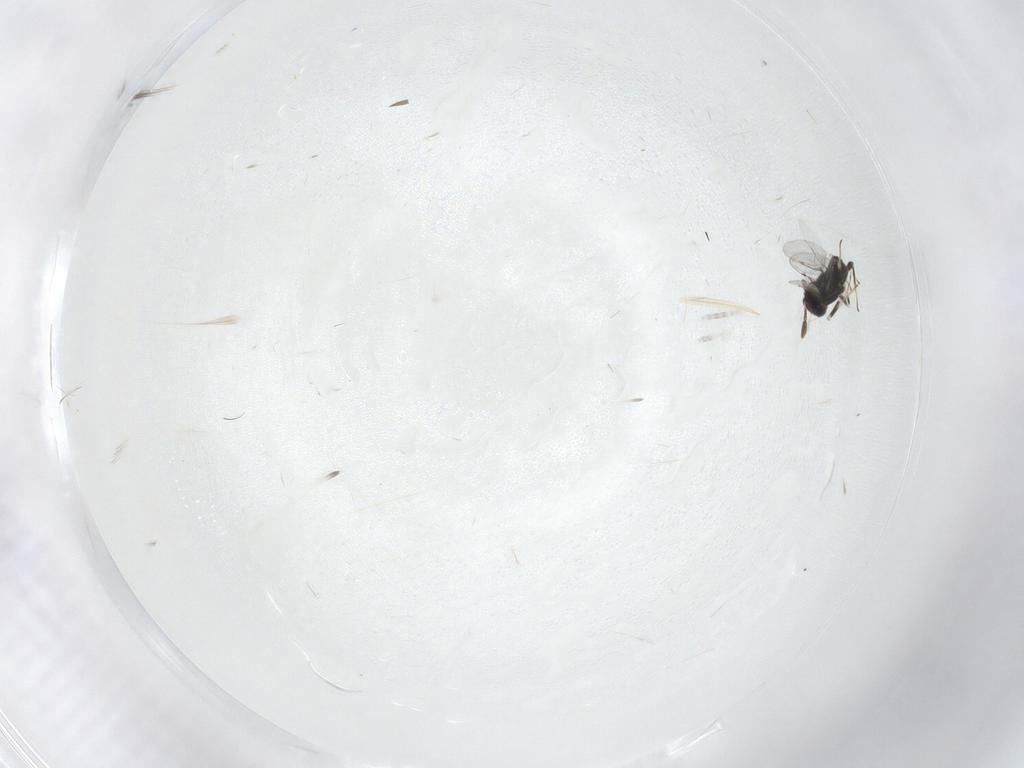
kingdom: Animalia
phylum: Arthropoda
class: Insecta
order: Hymenoptera
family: Encyrtidae
